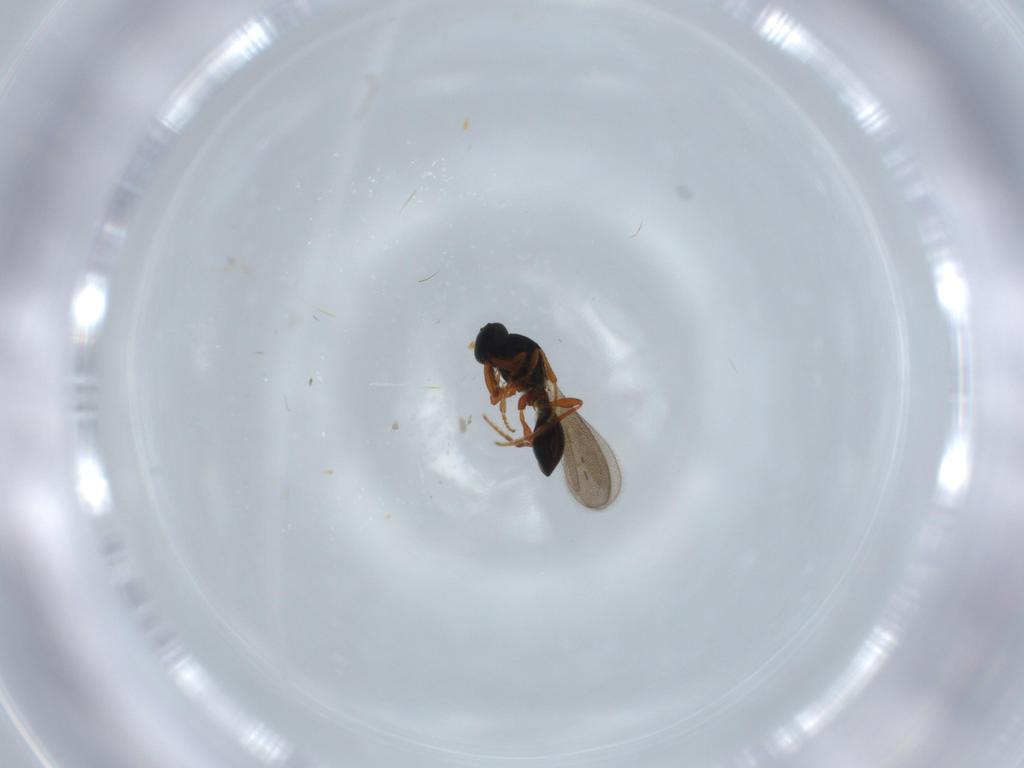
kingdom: Animalia
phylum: Arthropoda
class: Insecta
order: Hymenoptera
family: Platygastridae
